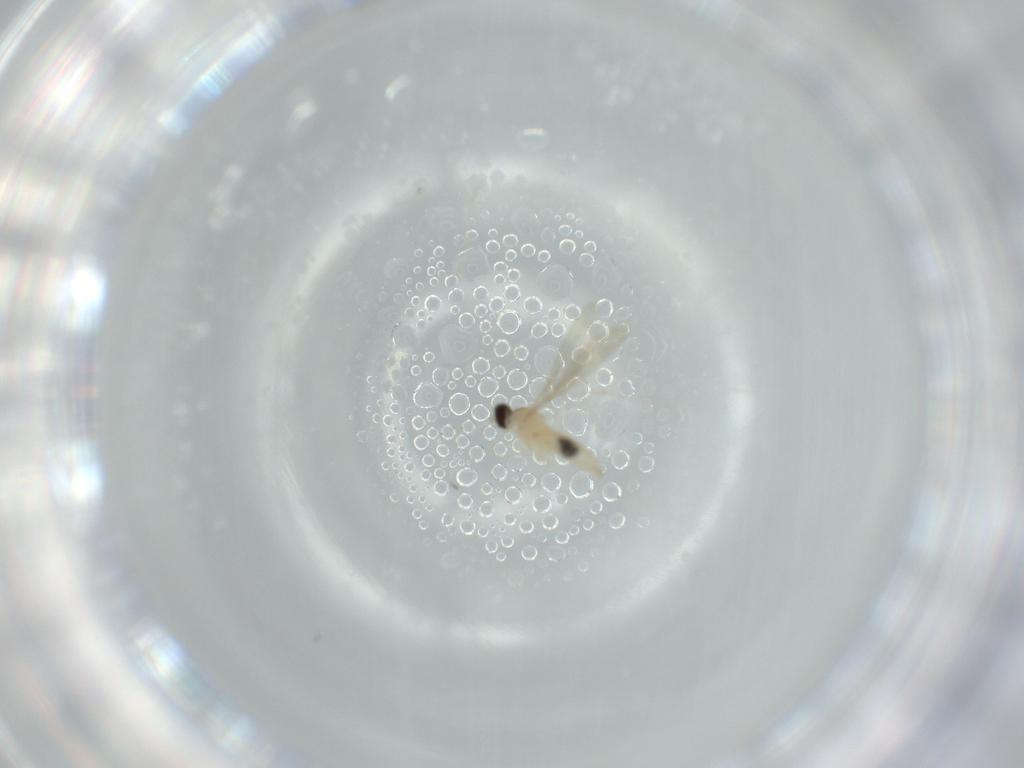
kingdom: Animalia
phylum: Arthropoda
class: Insecta
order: Diptera
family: Cecidomyiidae
